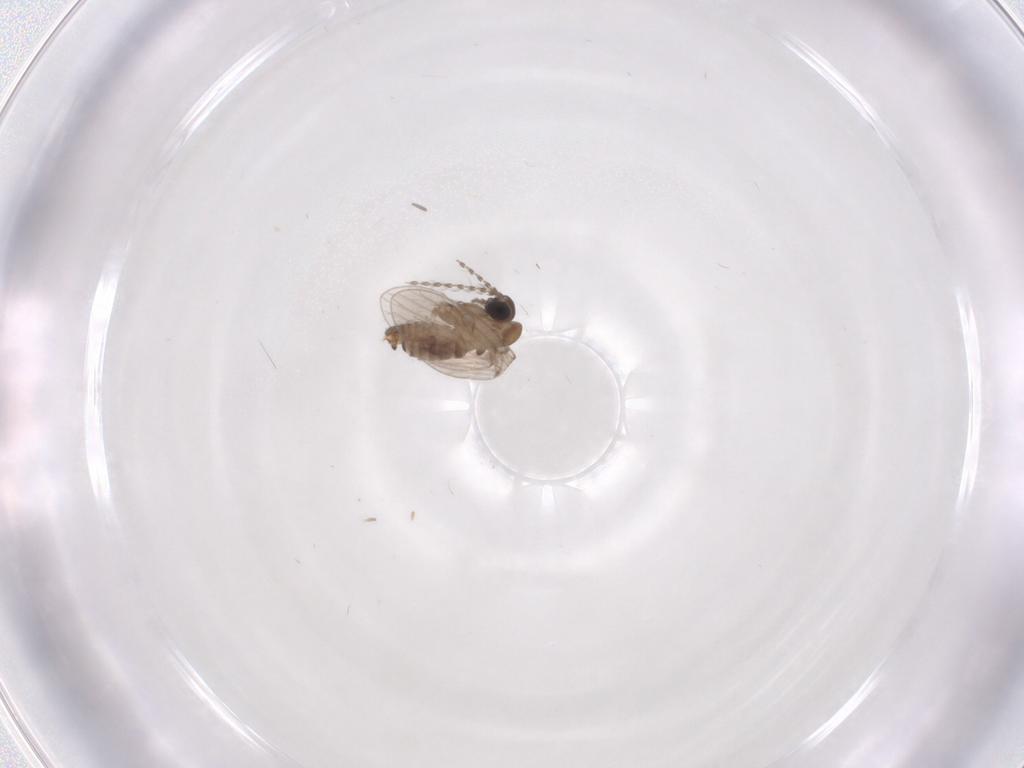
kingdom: Animalia
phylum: Arthropoda
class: Insecta
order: Diptera
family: Psychodidae
